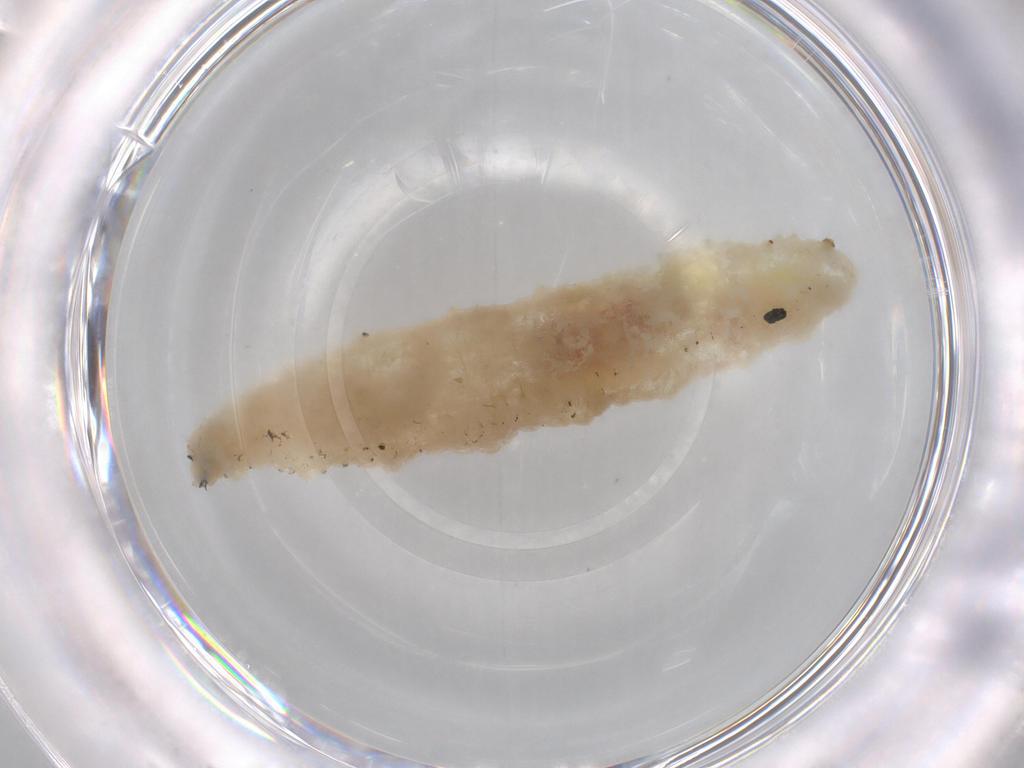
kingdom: Animalia
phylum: Arthropoda
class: Insecta
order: Diptera
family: Syrphidae
